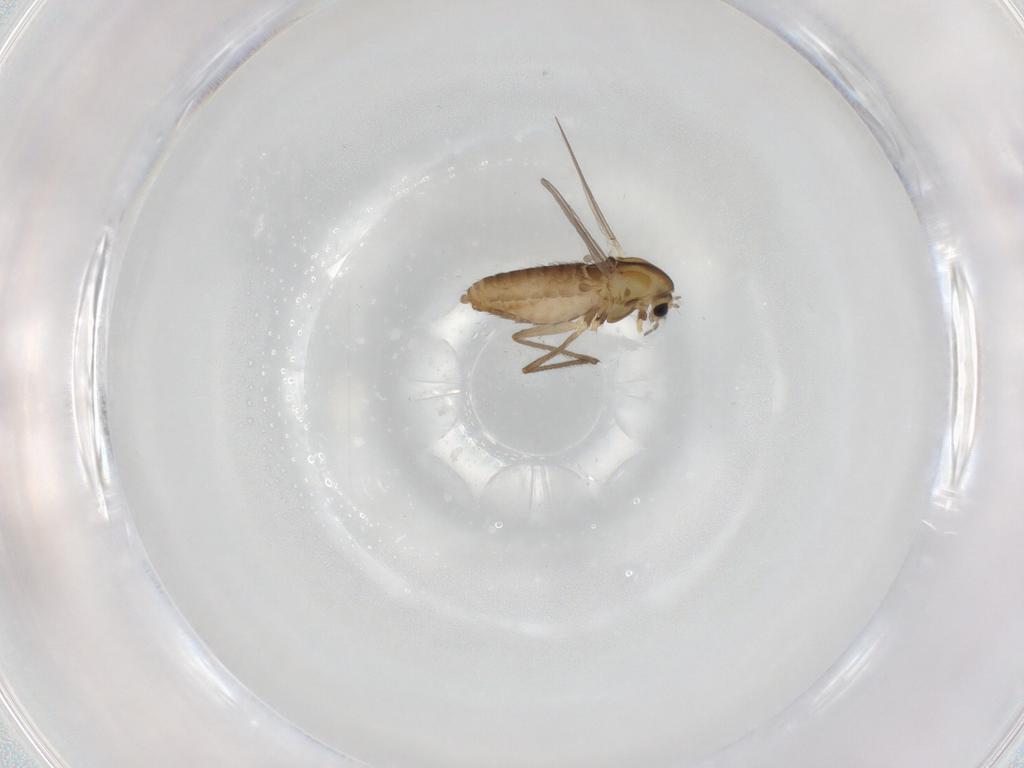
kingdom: Animalia
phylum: Arthropoda
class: Insecta
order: Diptera
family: Chironomidae
